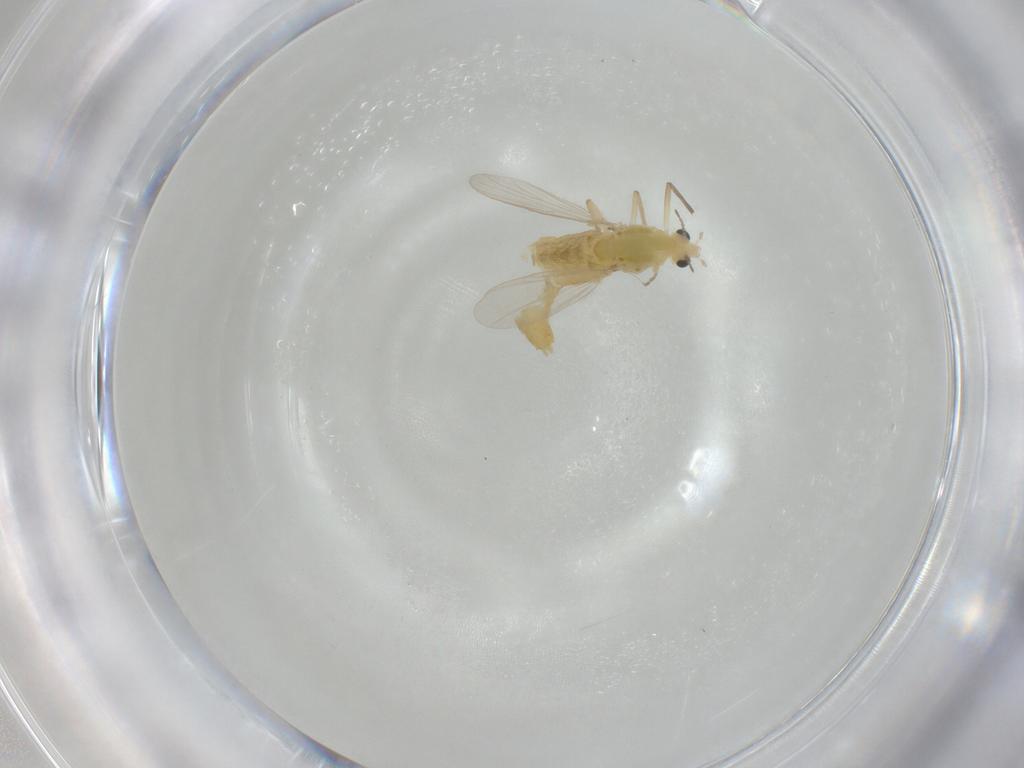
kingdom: Animalia
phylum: Arthropoda
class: Insecta
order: Diptera
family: Chironomidae
